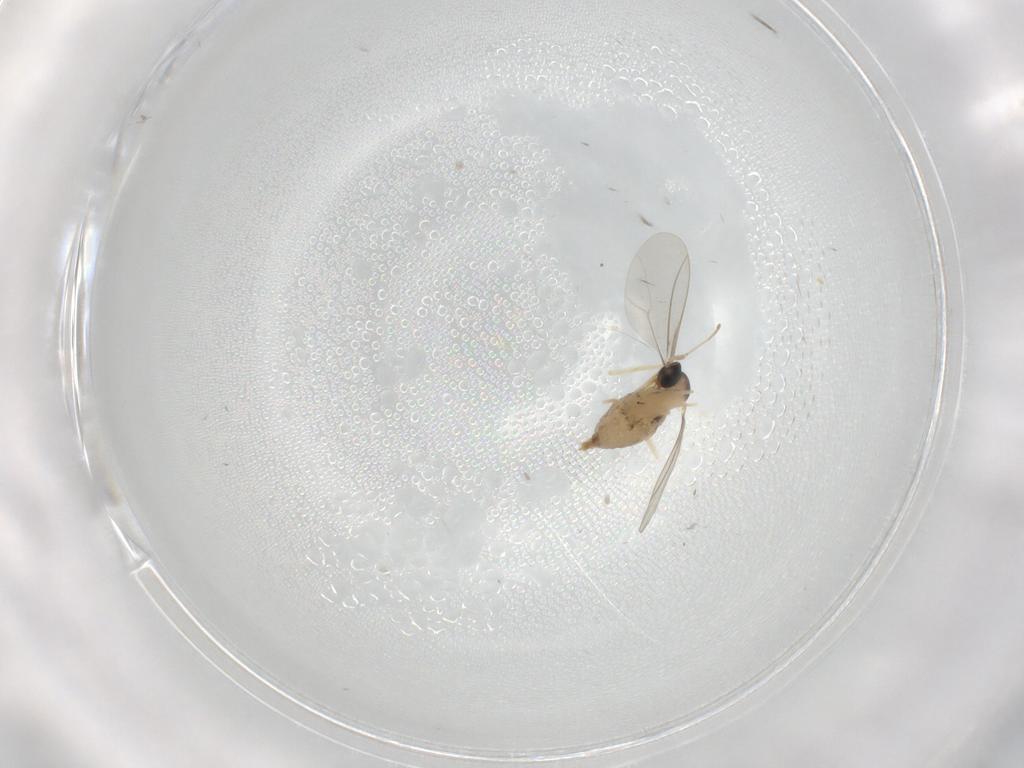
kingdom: Animalia
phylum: Arthropoda
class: Insecta
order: Diptera
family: Cecidomyiidae
